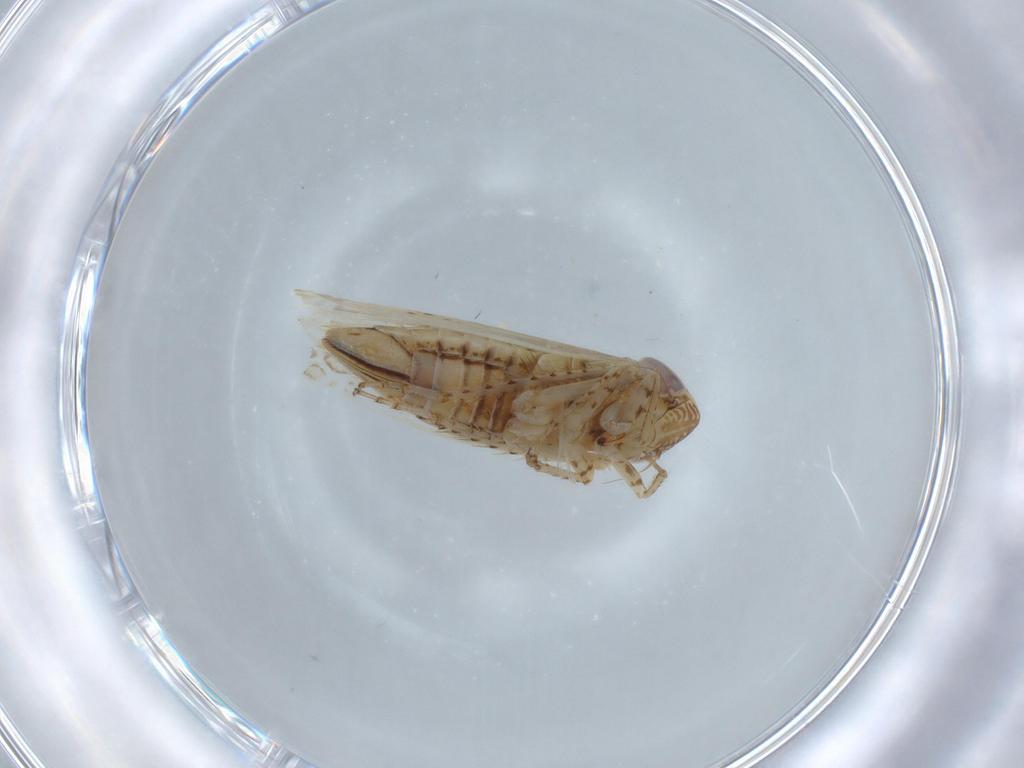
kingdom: Animalia
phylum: Arthropoda
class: Insecta
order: Hemiptera
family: Cicadellidae
